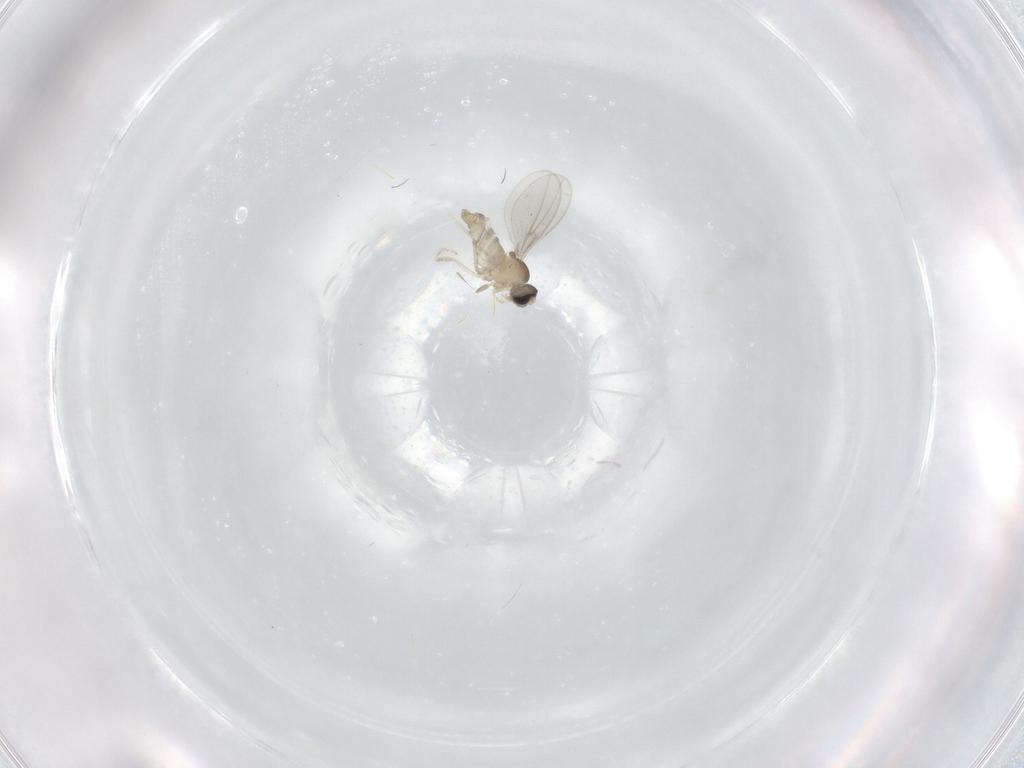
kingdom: Animalia
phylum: Arthropoda
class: Insecta
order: Diptera
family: Cecidomyiidae
